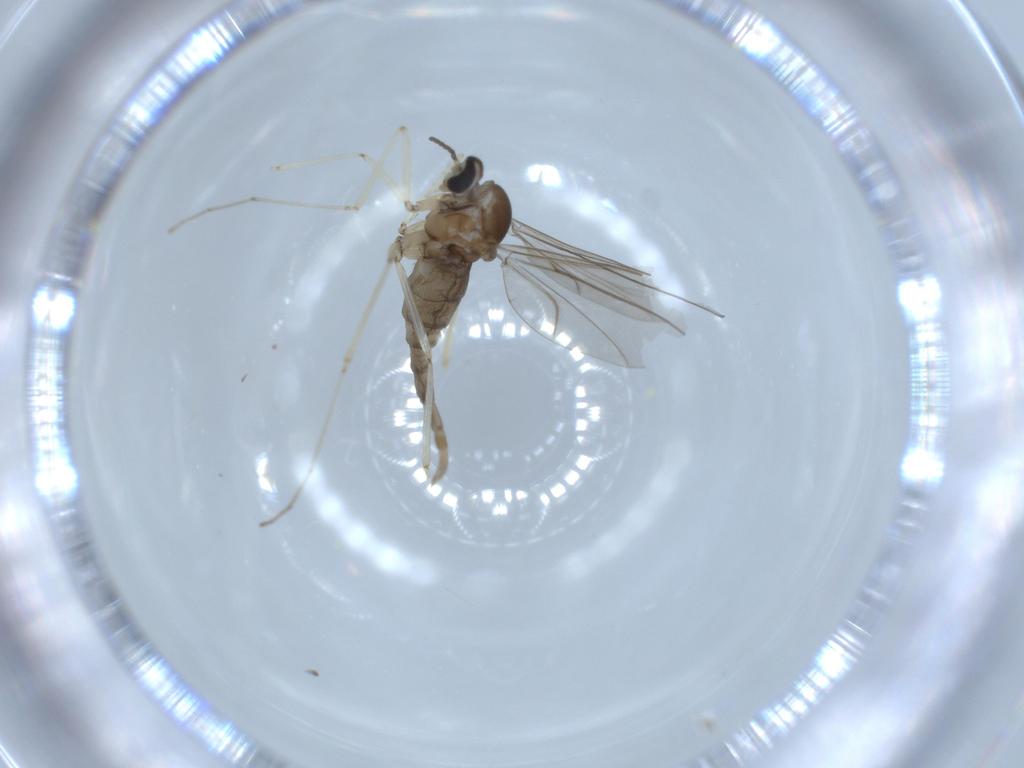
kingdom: Animalia
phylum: Arthropoda
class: Insecta
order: Diptera
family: Cecidomyiidae
